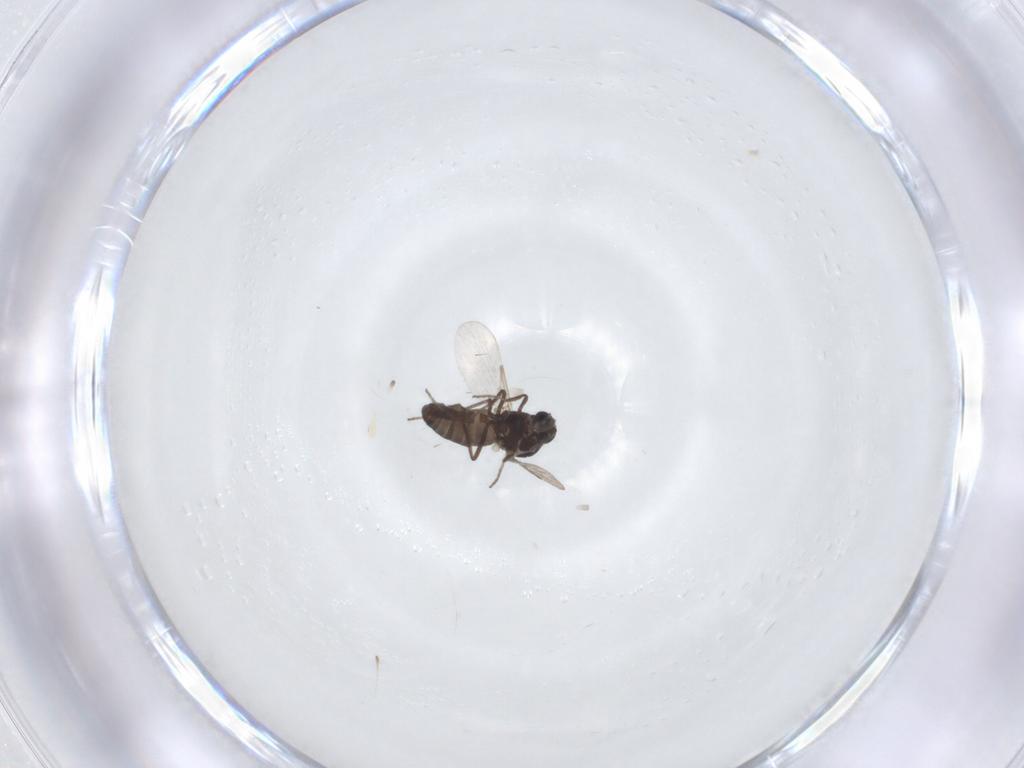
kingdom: Animalia
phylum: Arthropoda
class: Insecta
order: Diptera
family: Ceratopogonidae
